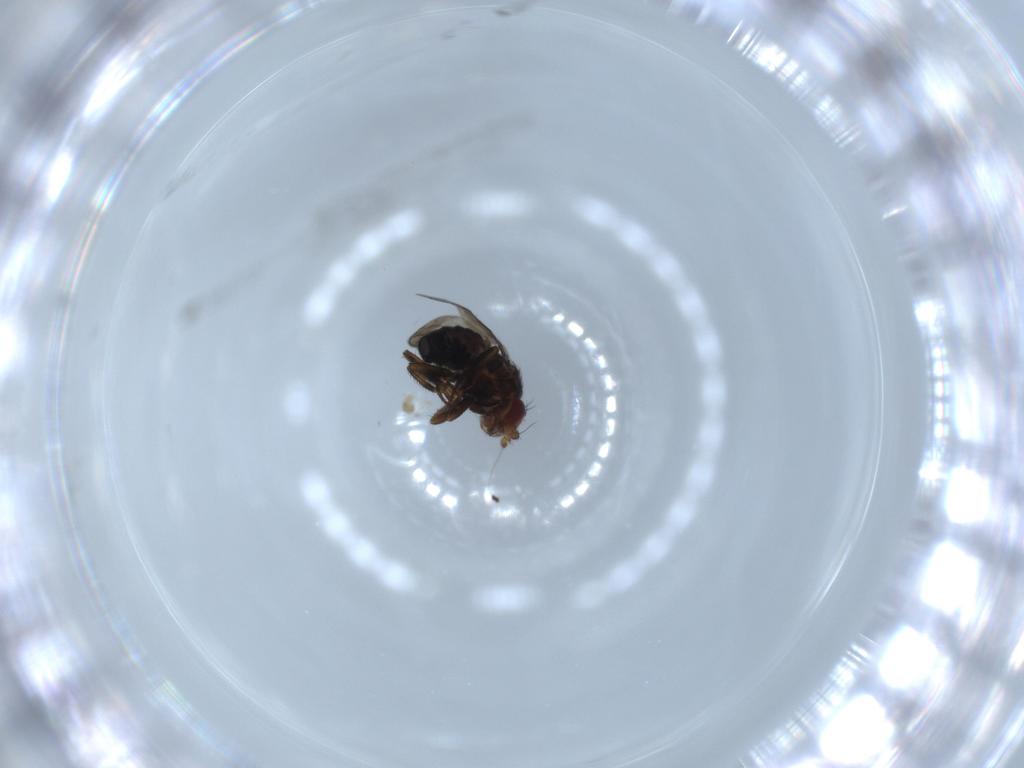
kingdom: Animalia
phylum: Arthropoda
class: Insecta
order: Diptera
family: Sphaeroceridae
